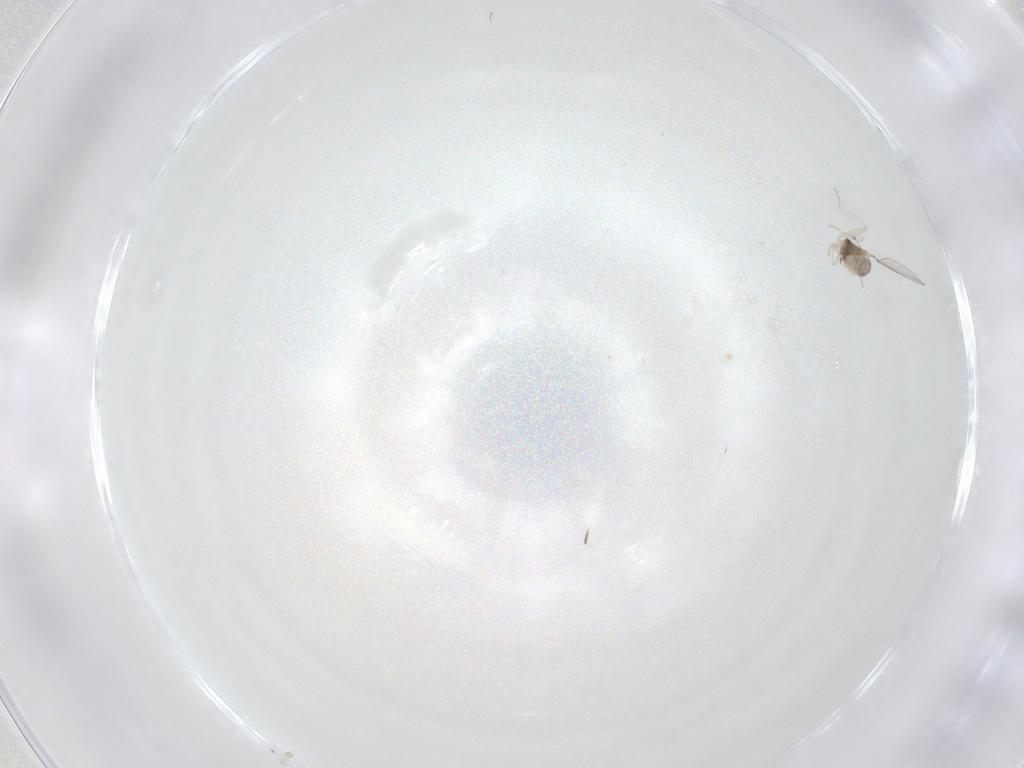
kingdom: Animalia
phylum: Arthropoda
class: Insecta
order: Diptera
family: Cecidomyiidae
